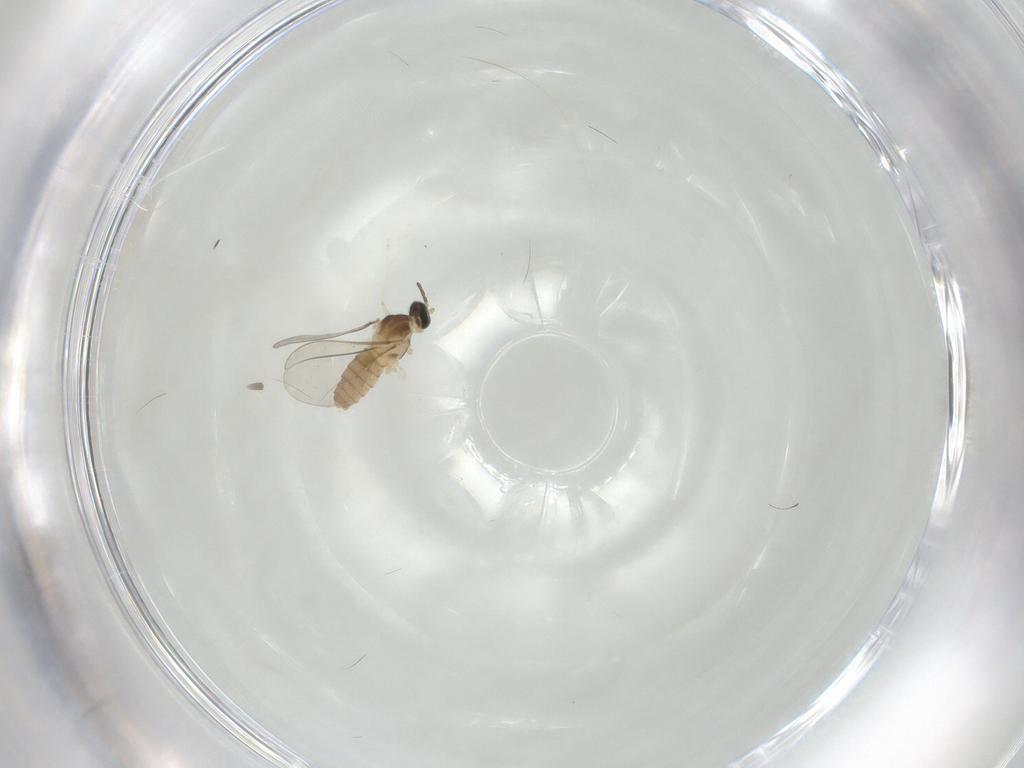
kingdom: Animalia
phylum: Arthropoda
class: Insecta
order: Diptera
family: Cecidomyiidae
